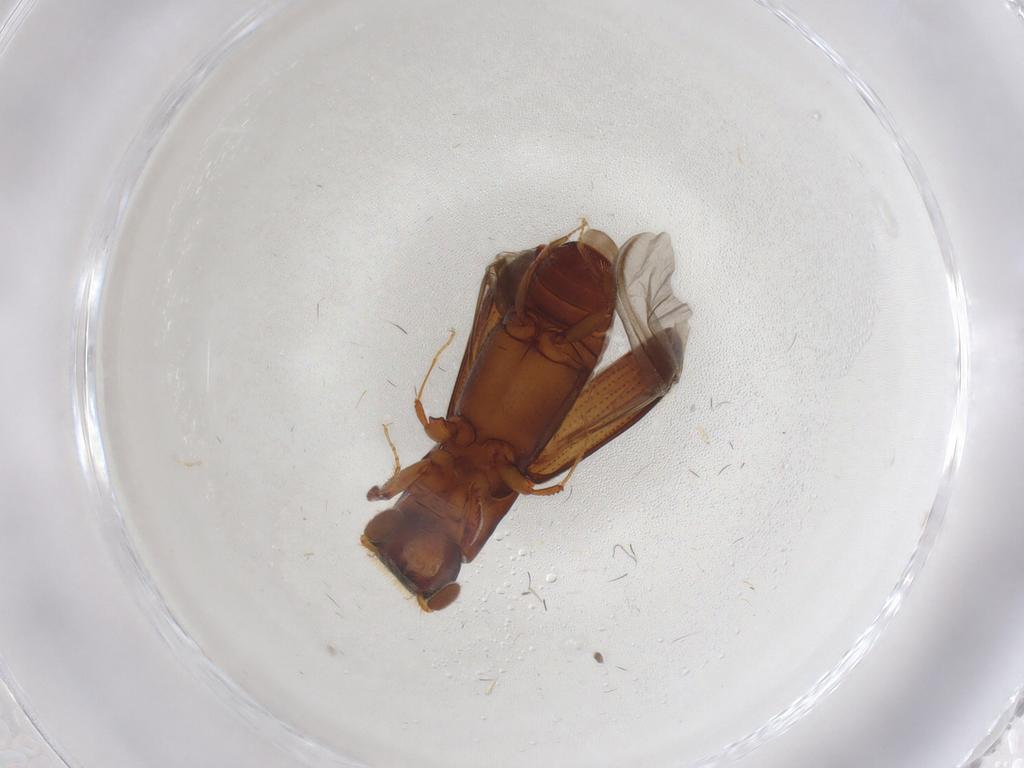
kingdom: Animalia
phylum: Arthropoda
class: Insecta
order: Coleoptera
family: Curculionidae
